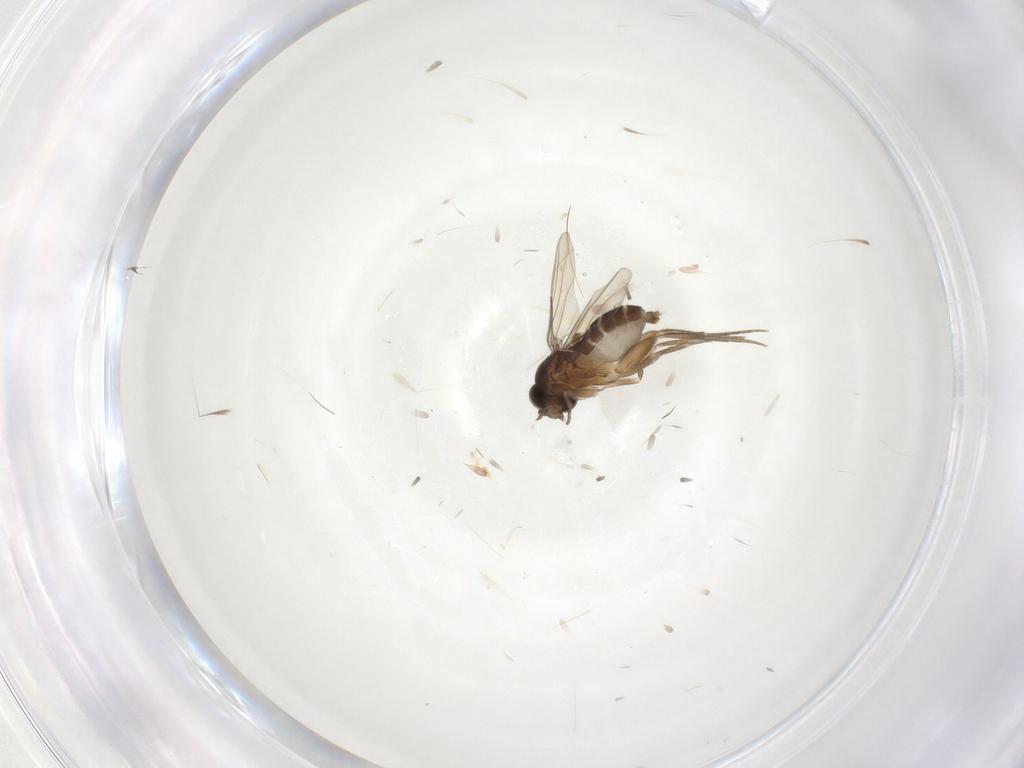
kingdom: Animalia
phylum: Arthropoda
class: Insecta
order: Diptera
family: Phoridae
